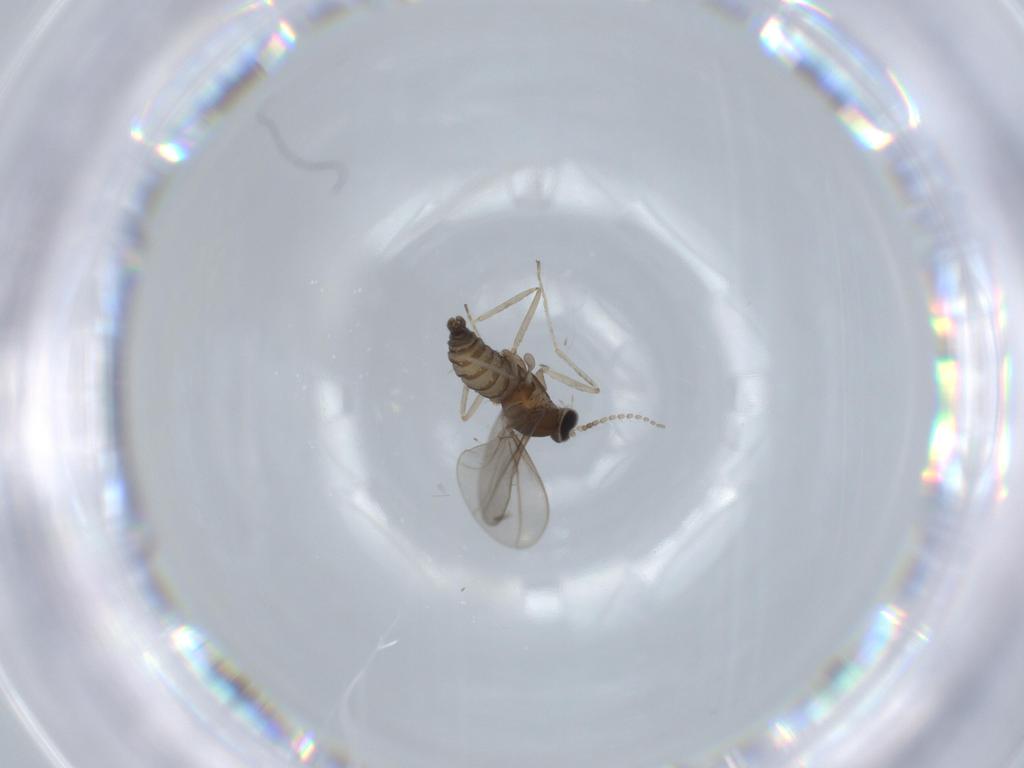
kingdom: Animalia
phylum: Arthropoda
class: Insecta
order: Diptera
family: Cecidomyiidae
